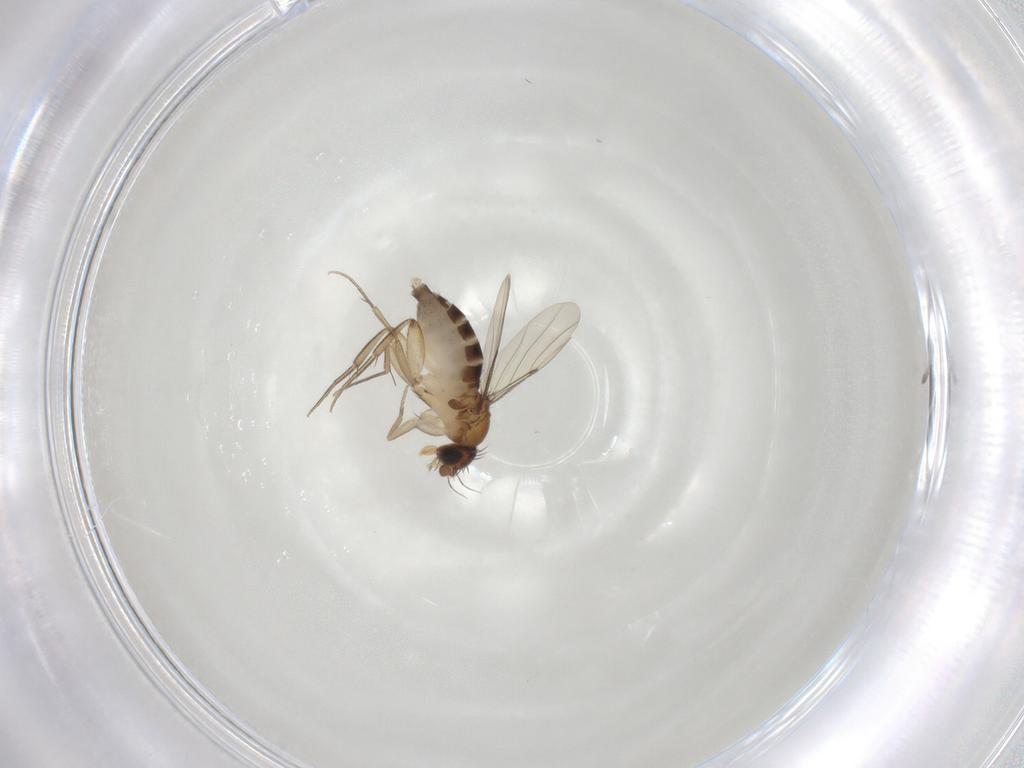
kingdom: Animalia
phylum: Arthropoda
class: Insecta
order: Diptera
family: Phoridae
